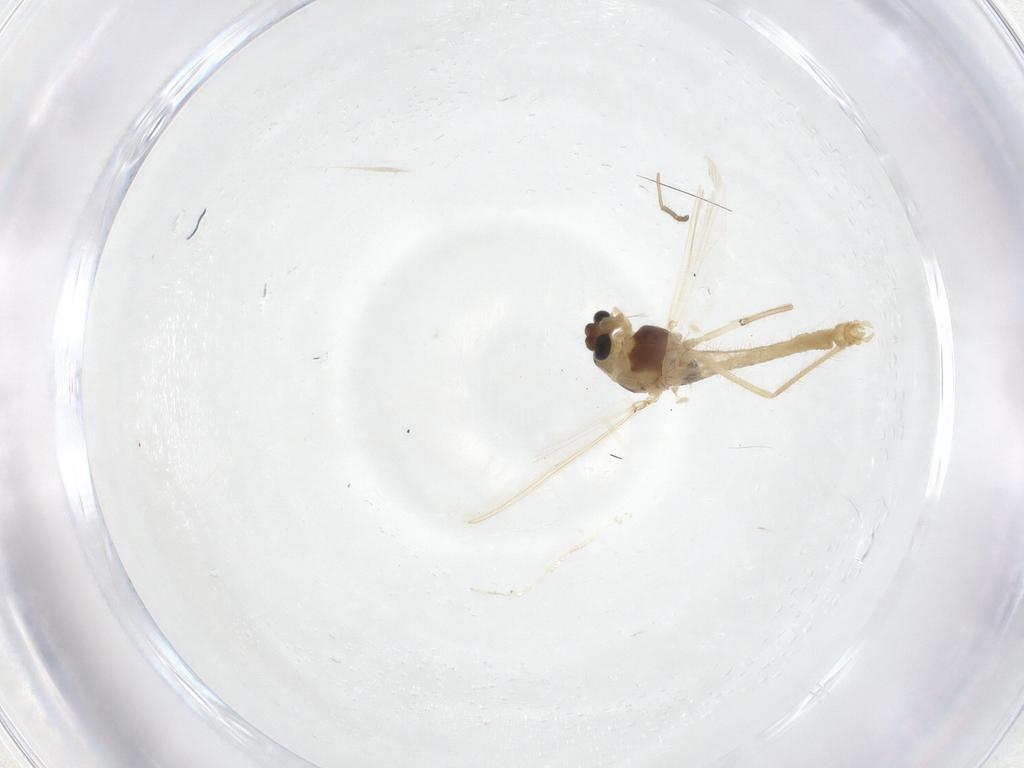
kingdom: Animalia
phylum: Arthropoda
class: Insecta
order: Diptera
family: Chironomidae
